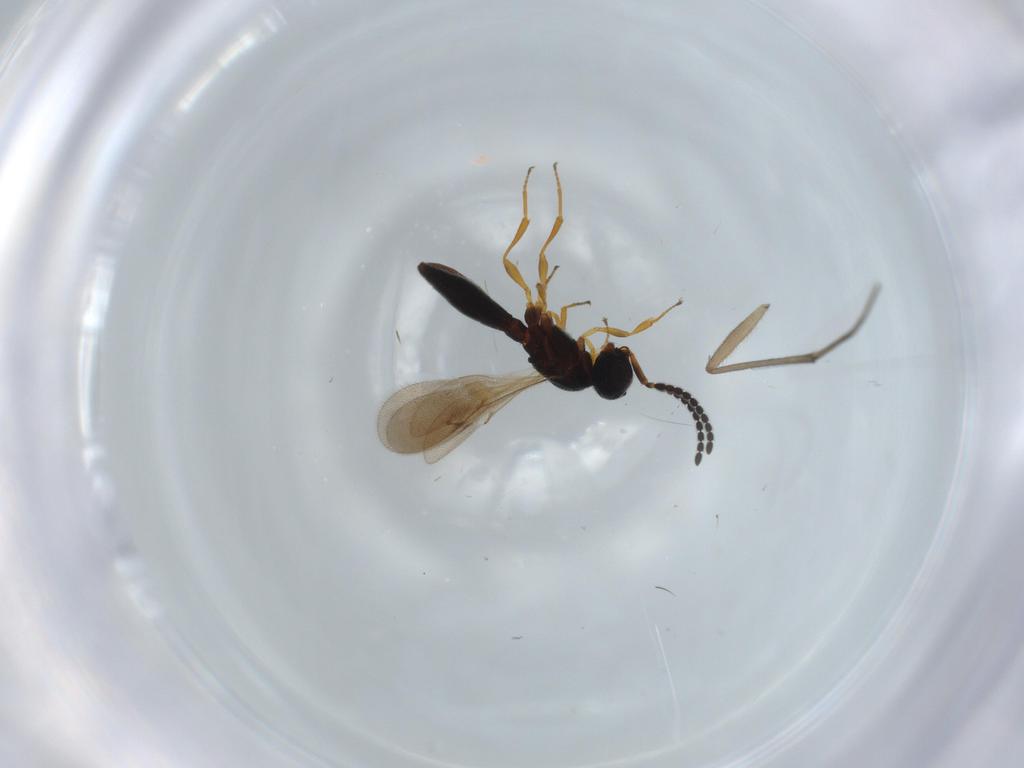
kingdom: Animalia
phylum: Arthropoda
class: Insecta
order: Hymenoptera
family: Scelionidae
